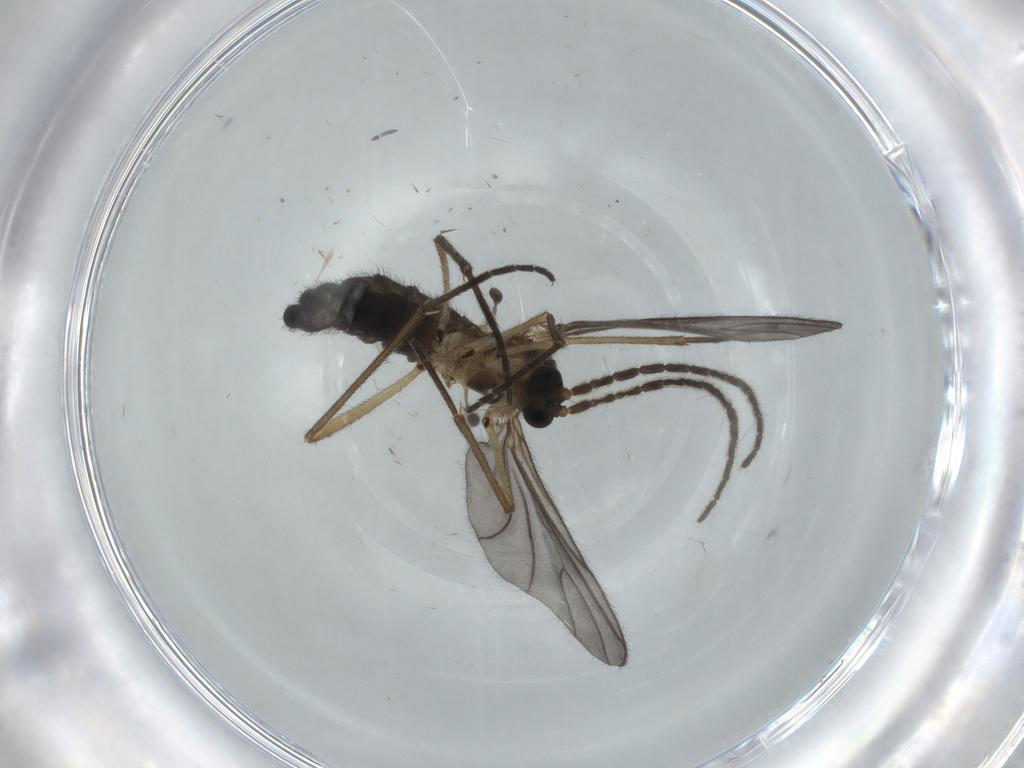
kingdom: Animalia
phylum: Arthropoda
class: Insecta
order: Diptera
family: Sciaridae
